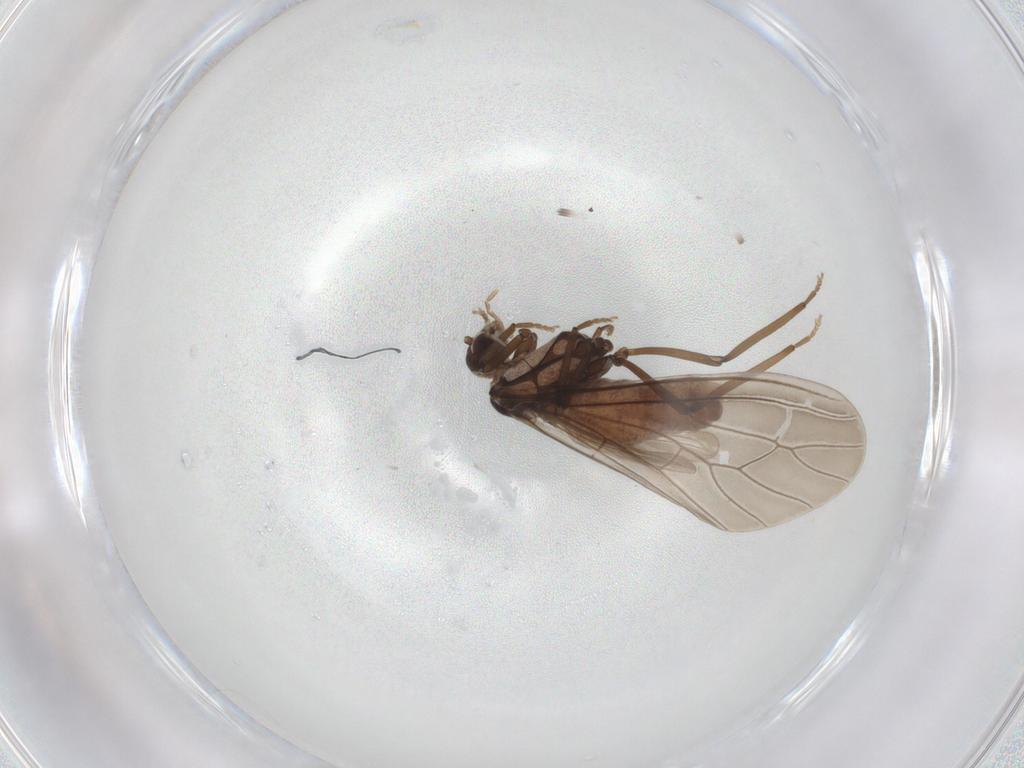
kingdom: Animalia
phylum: Arthropoda
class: Insecta
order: Neuroptera
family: Coniopterygidae
